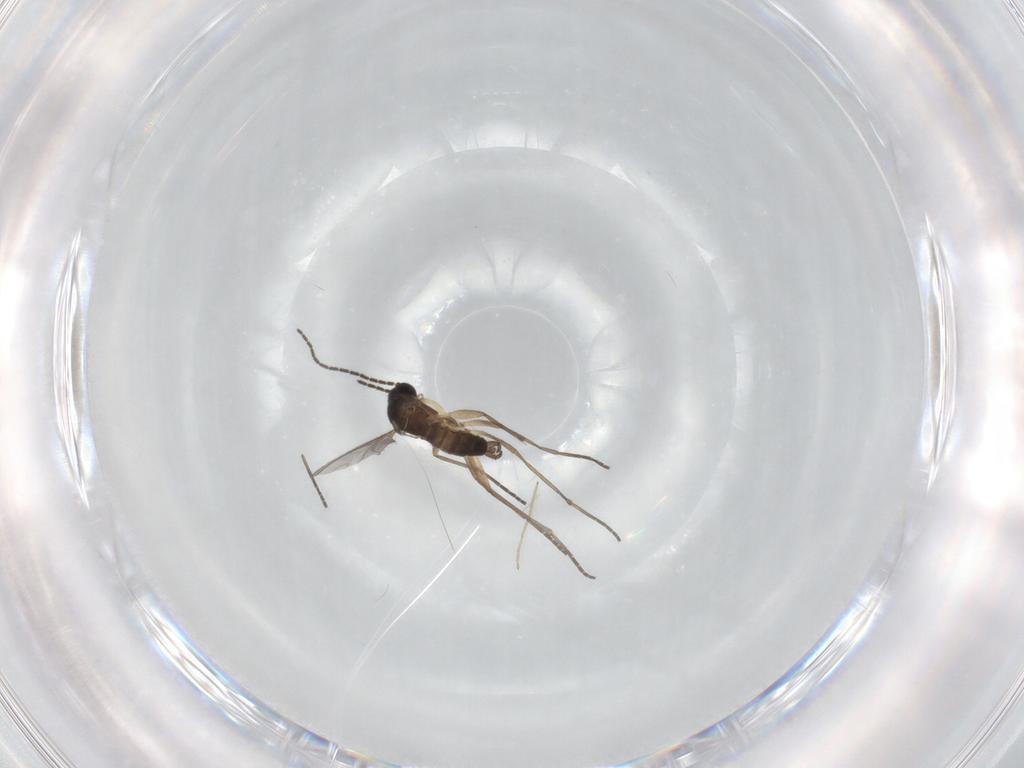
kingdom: Animalia
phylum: Arthropoda
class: Insecta
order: Diptera
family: Sciaridae
